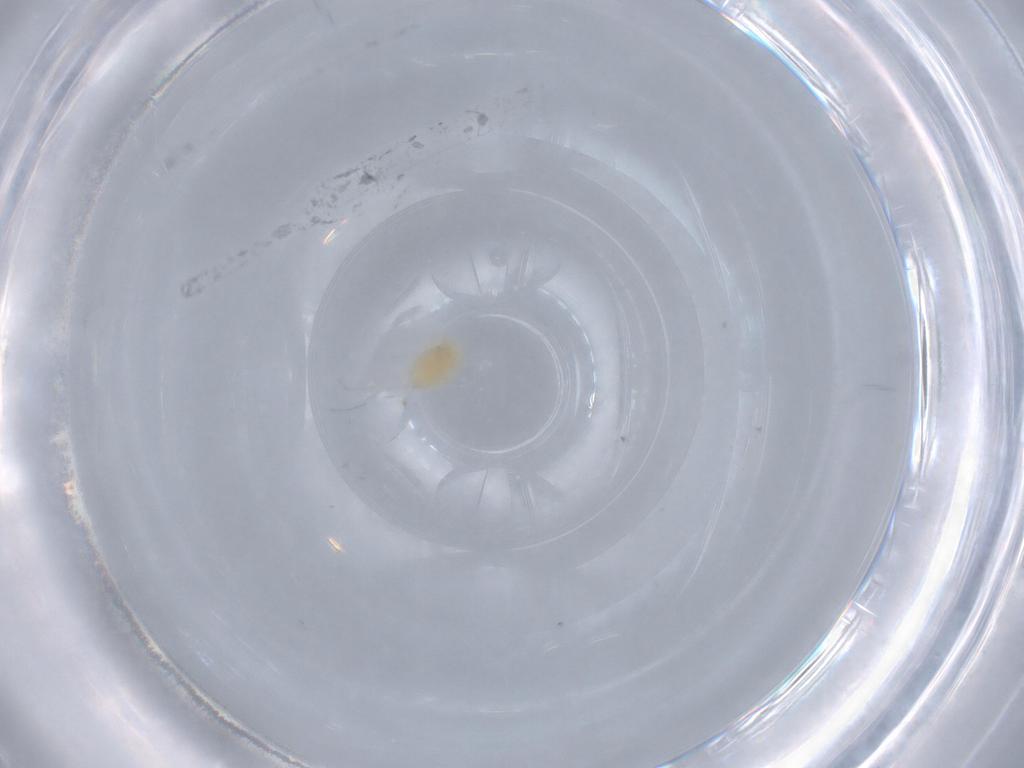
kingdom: Animalia
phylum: Arthropoda
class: Arachnida
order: Trombidiformes
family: Eupodidae
